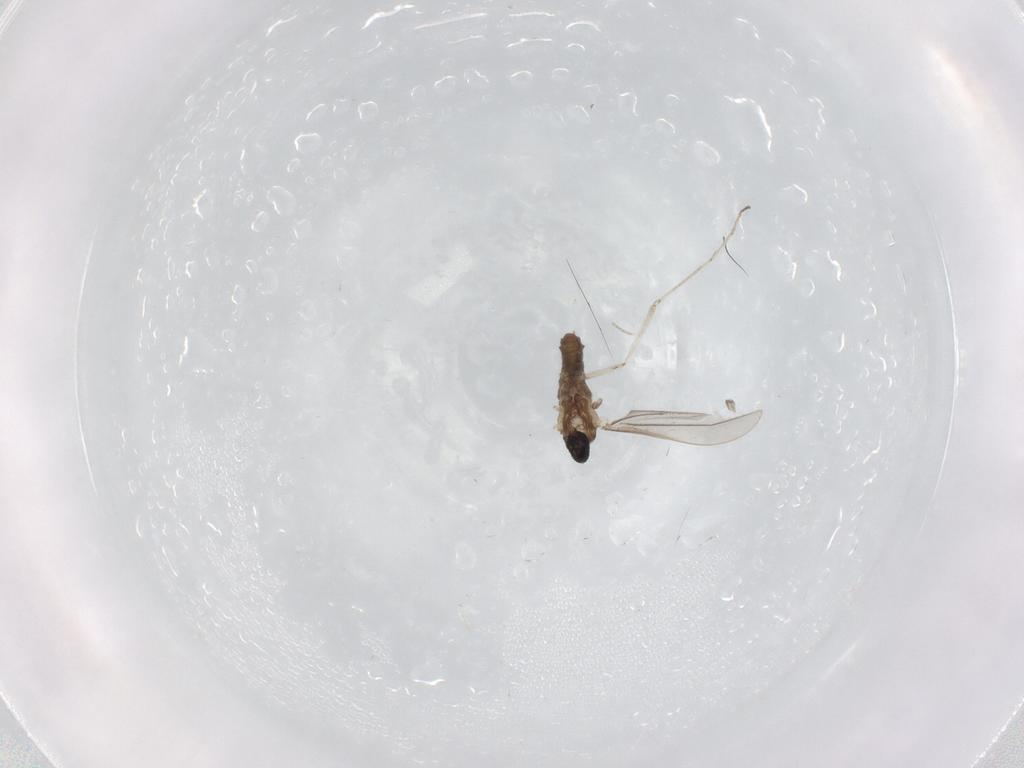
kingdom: Animalia
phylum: Arthropoda
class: Insecta
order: Diptera
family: Cecidomyiidae
